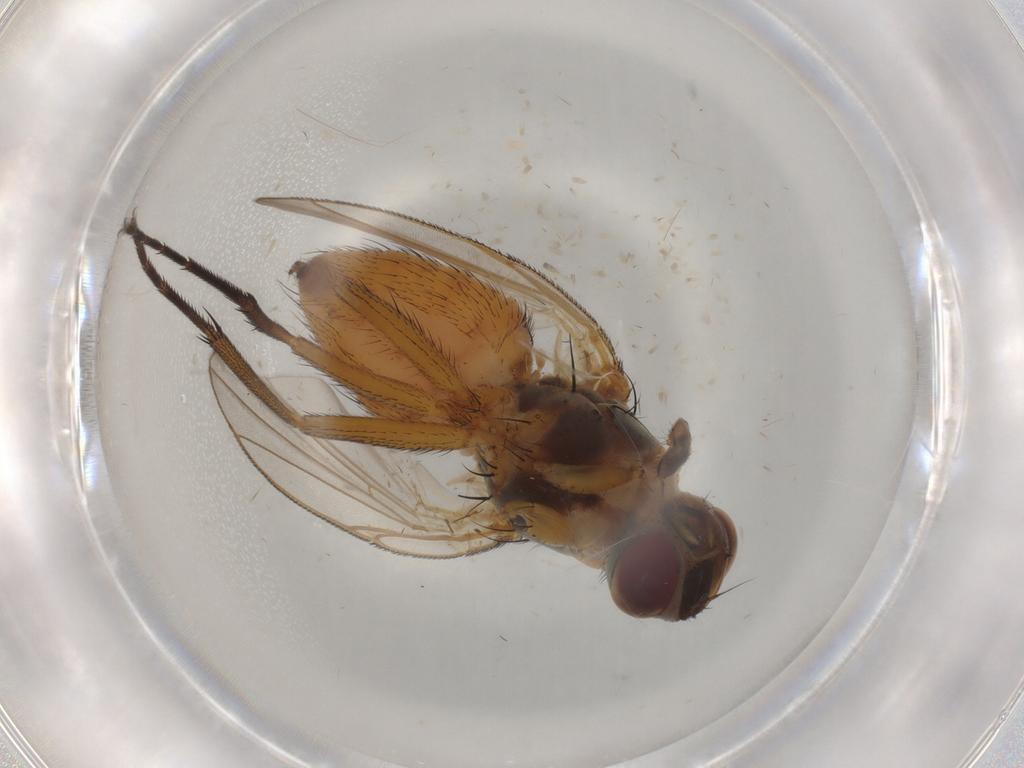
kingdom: Animalia
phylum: Arthropoda
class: Insecta
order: Diptera
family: Muscidae
